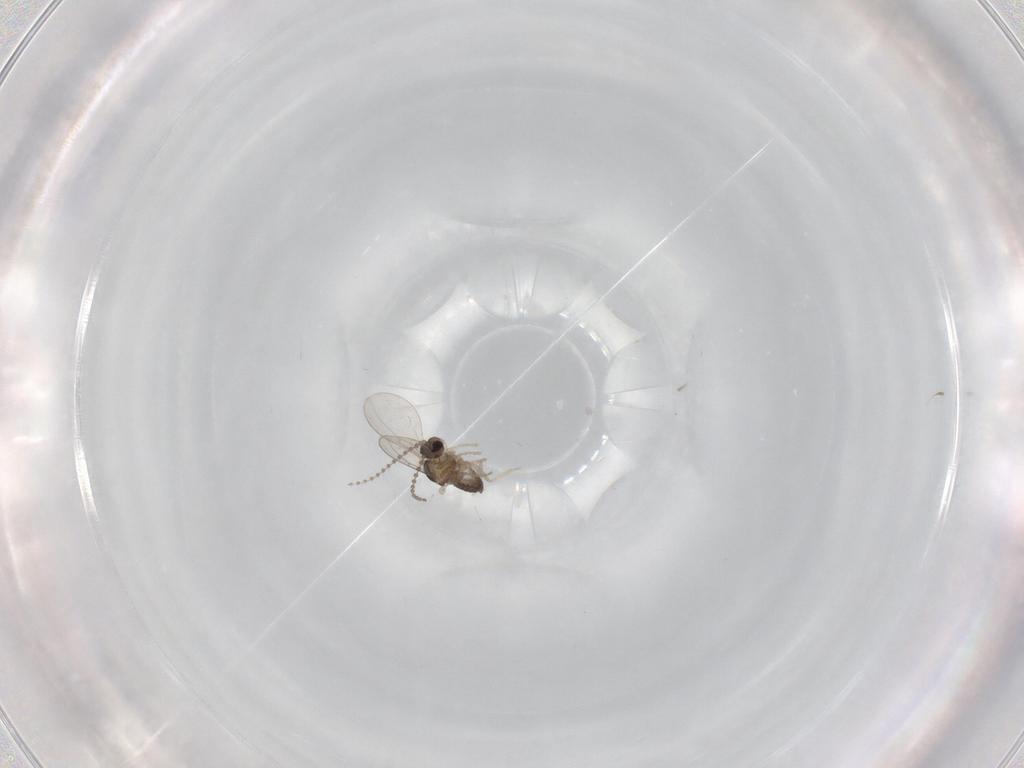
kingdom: Animalia
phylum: Arthropoda
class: Insecta
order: Diptera
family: Cecidomyiidae
